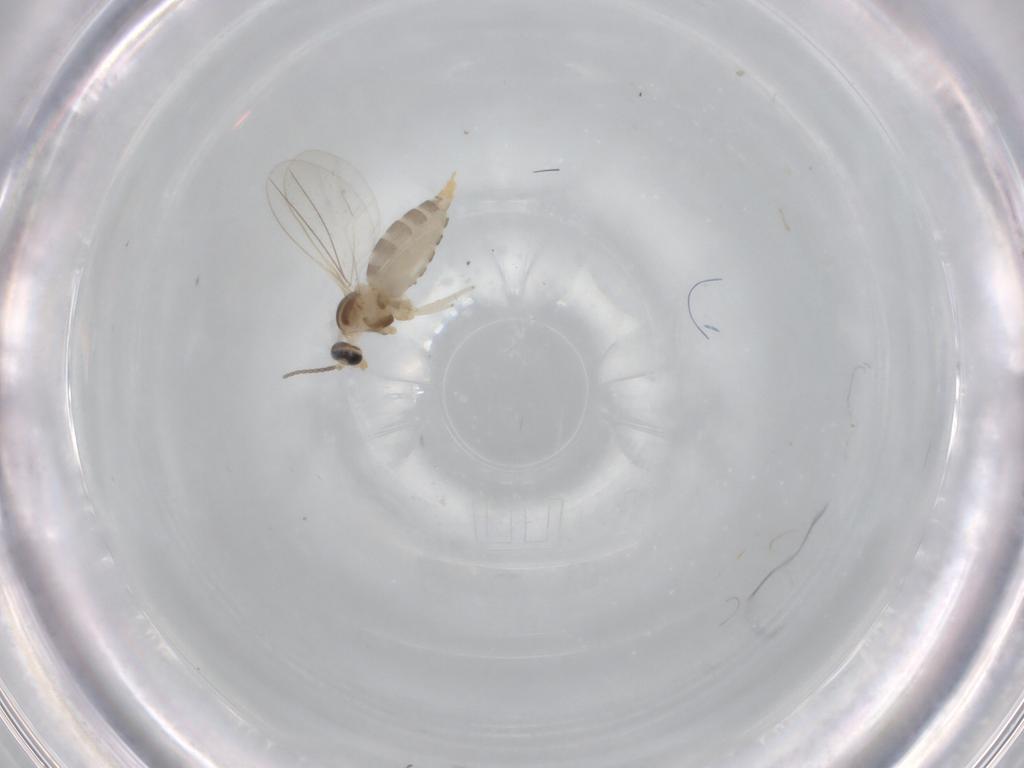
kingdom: Animalia
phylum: Arthropoda
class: Insecta
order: Diptera
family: Cecidomyiidae
